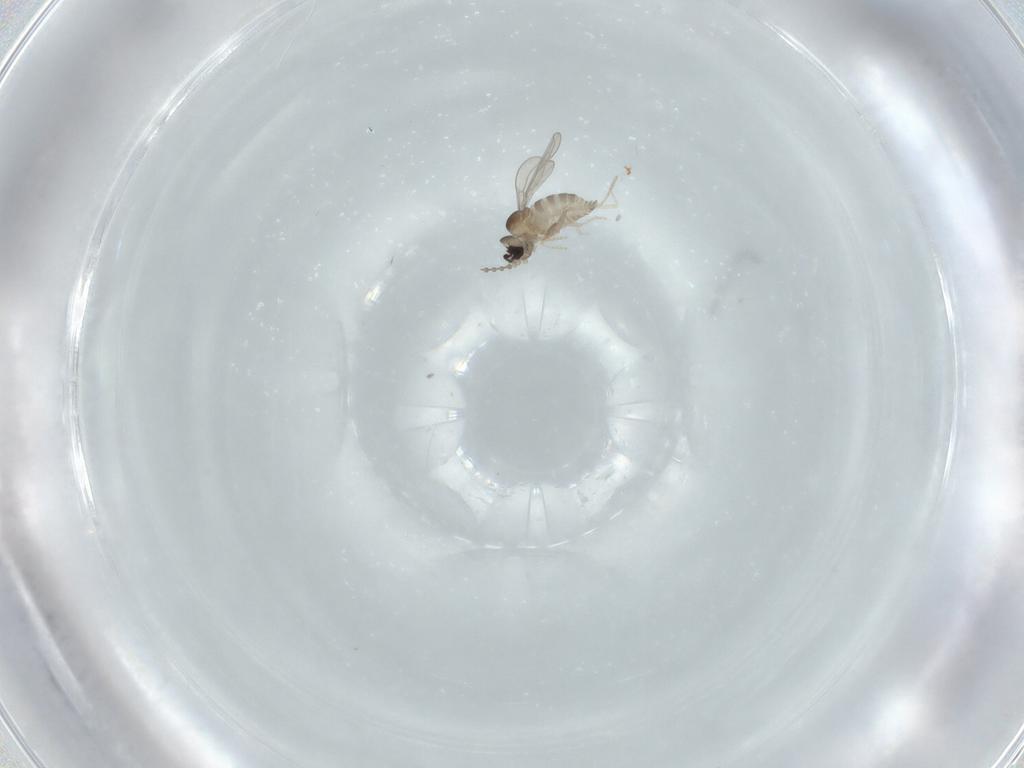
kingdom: Animalia
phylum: Arthropoda
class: Insecta
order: Diptera
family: Cecidomyiidae
